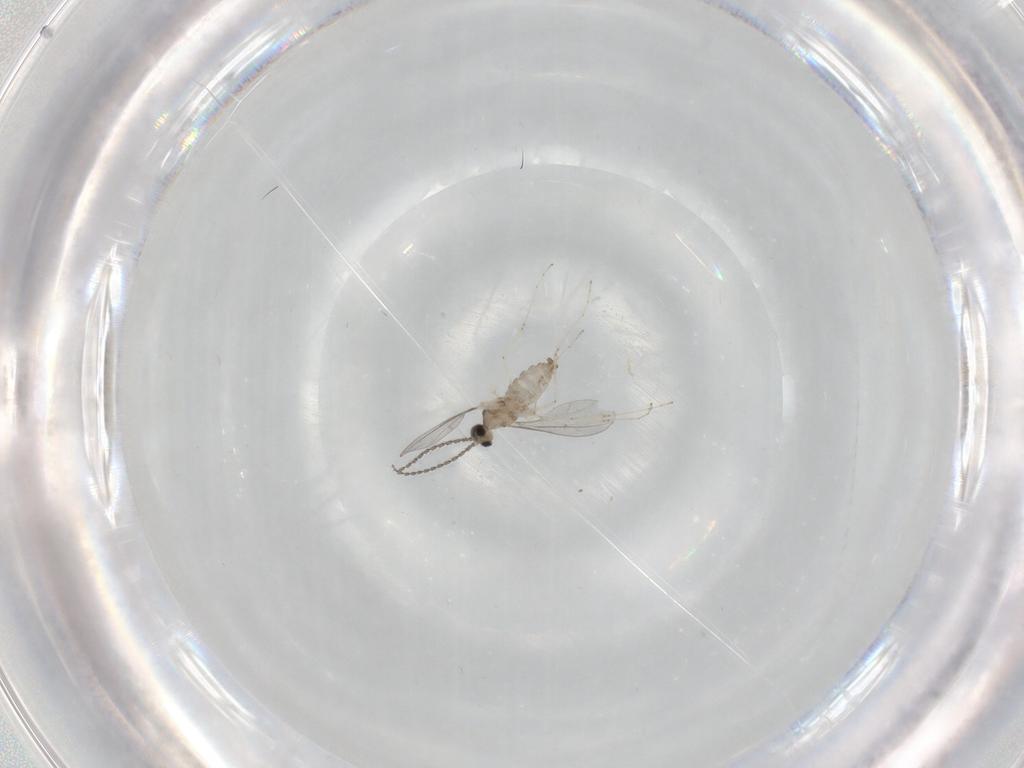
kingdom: Animalia
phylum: Arthropoda
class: Insecta
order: Diptera
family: Cecidomyiidae
